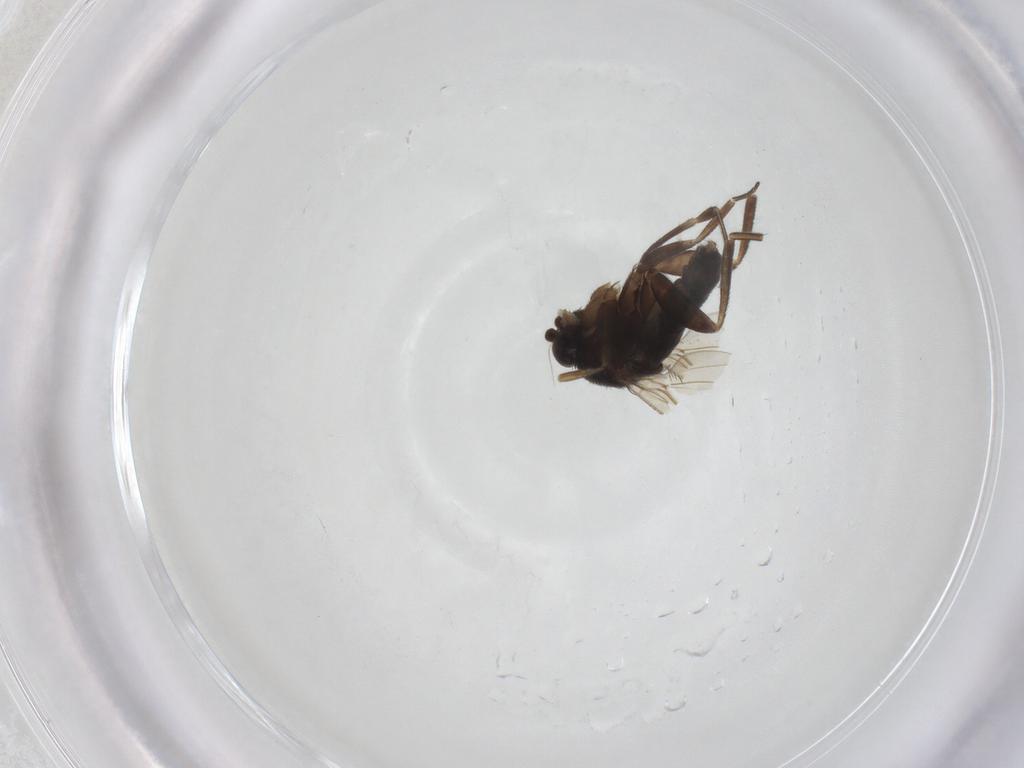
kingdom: Animalia
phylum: Arthropoda
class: Insecta
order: Diptera
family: Phoridae
